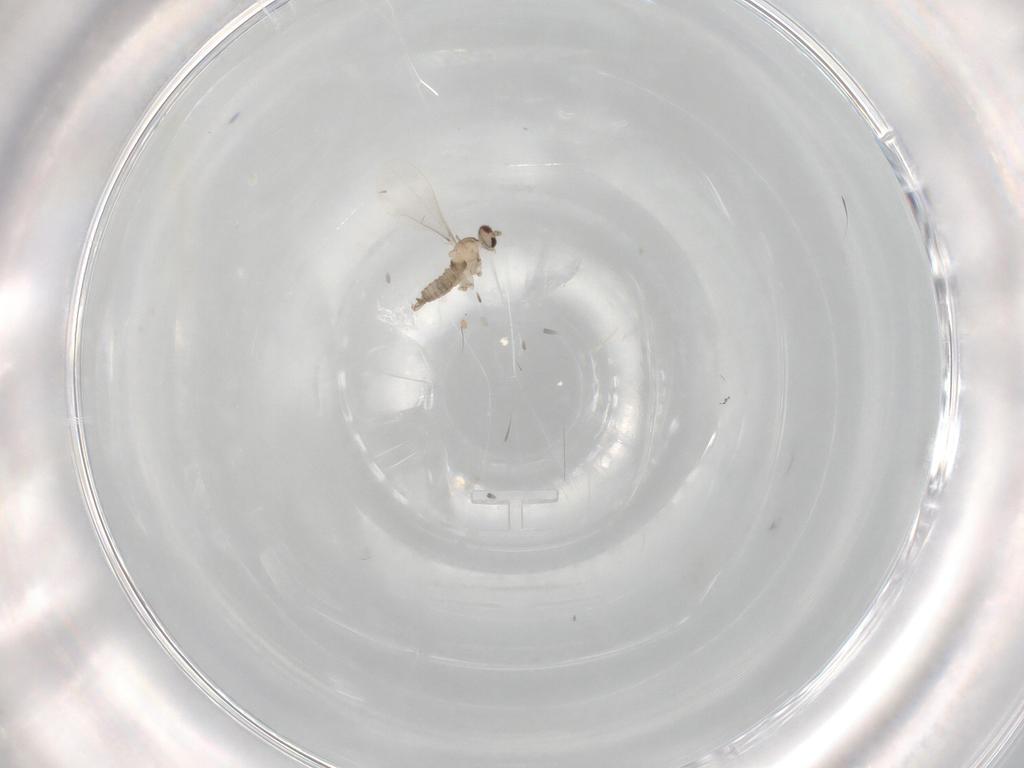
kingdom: Animalia
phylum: Arthropoda
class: Insecta
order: Diptera
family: Cecidomyiidae
